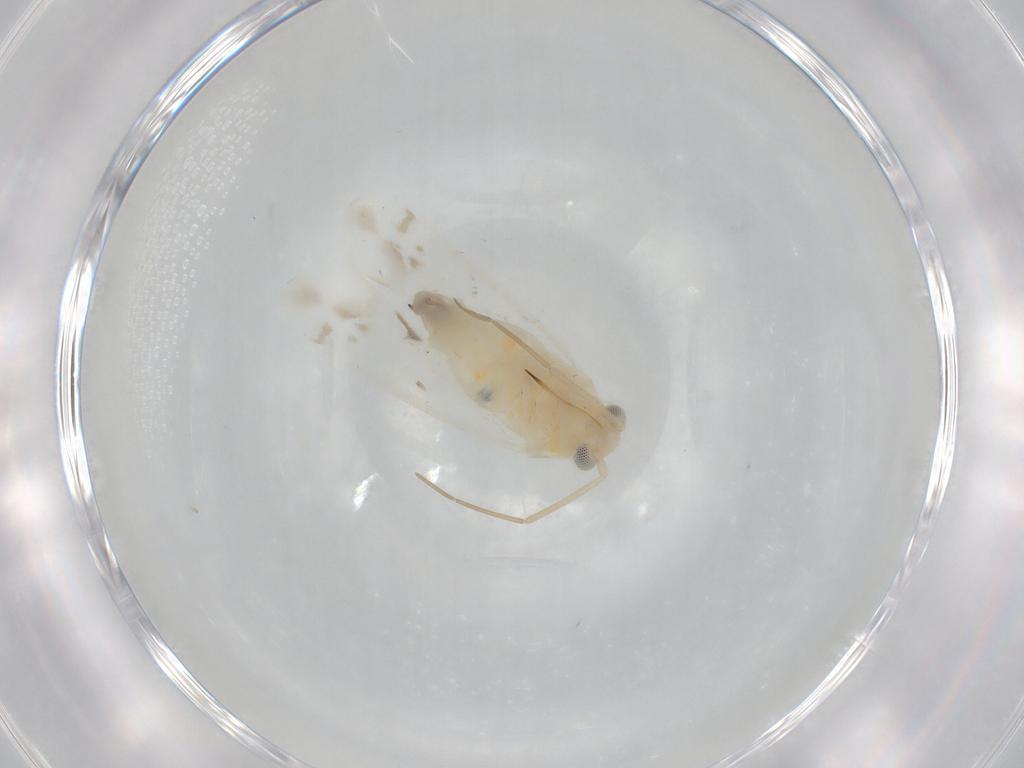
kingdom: Animalia
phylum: Arthropoda
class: Insecta
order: Hemiptera
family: Miridae
